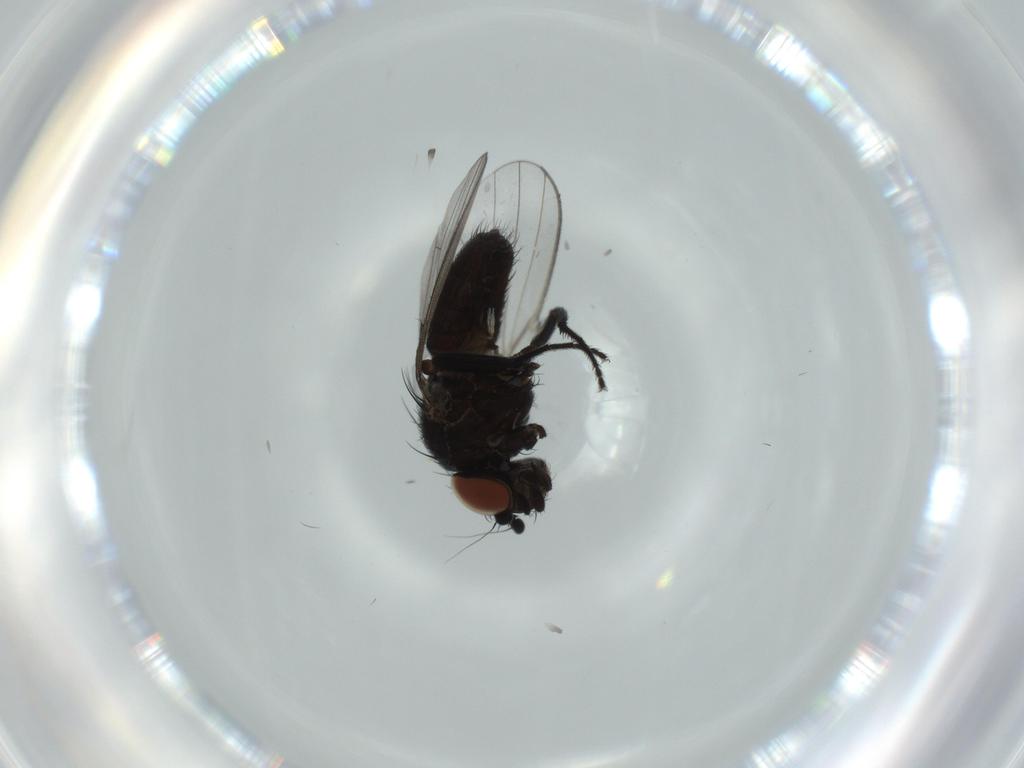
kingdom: Animalia
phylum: Arthropoda
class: Insecta
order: Diptera
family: Milichiidae
